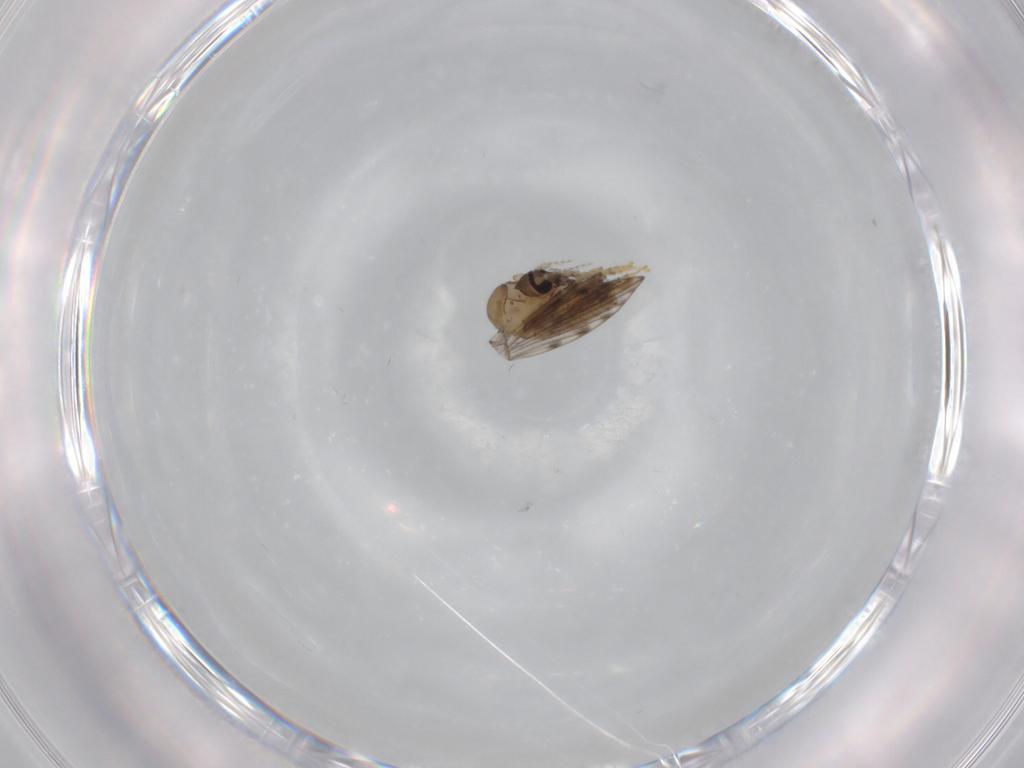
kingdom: Animalia
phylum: Arthropoda
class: Insecta
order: Diptera
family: Psychodidae
